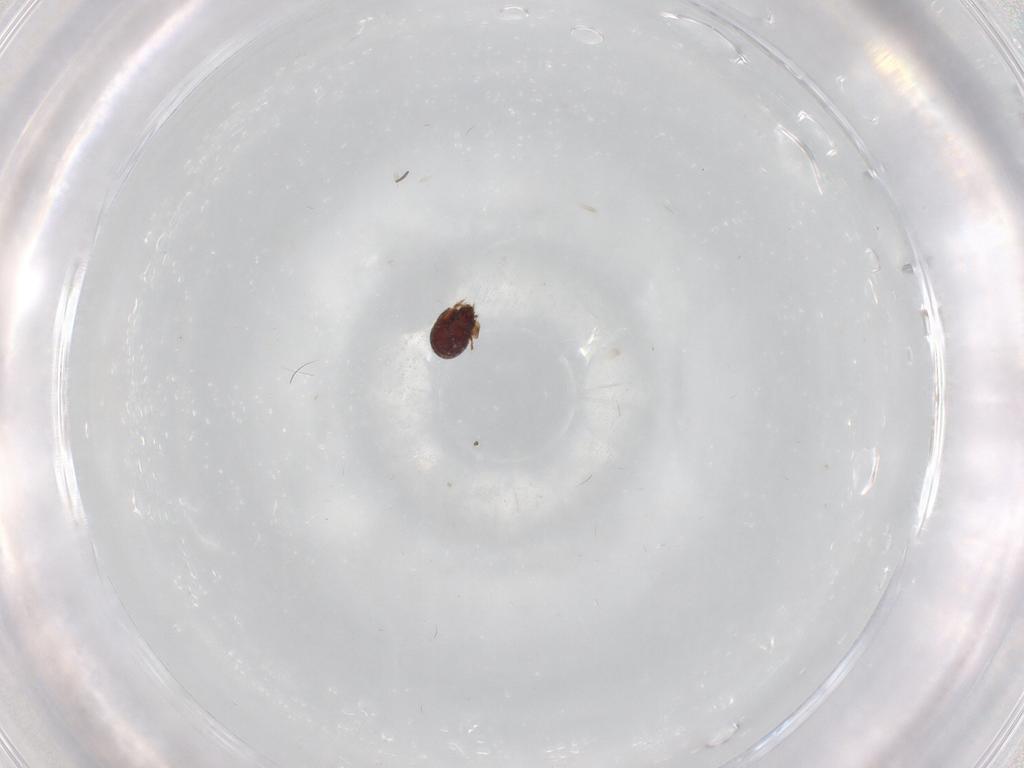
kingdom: Animalia
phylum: Arthropoda
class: Arachnida
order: Sarcoptiformes
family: Phenopelopidae
